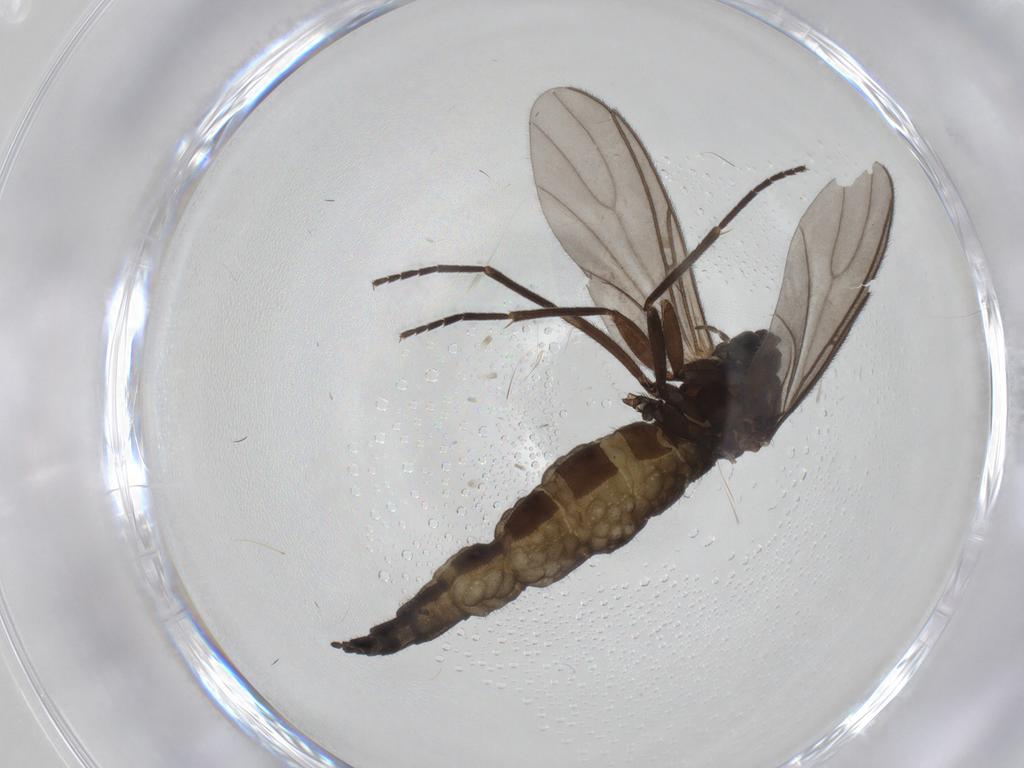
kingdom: Animalia
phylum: Arthropoda
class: Insecta
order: Diptera
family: Sciaridae
